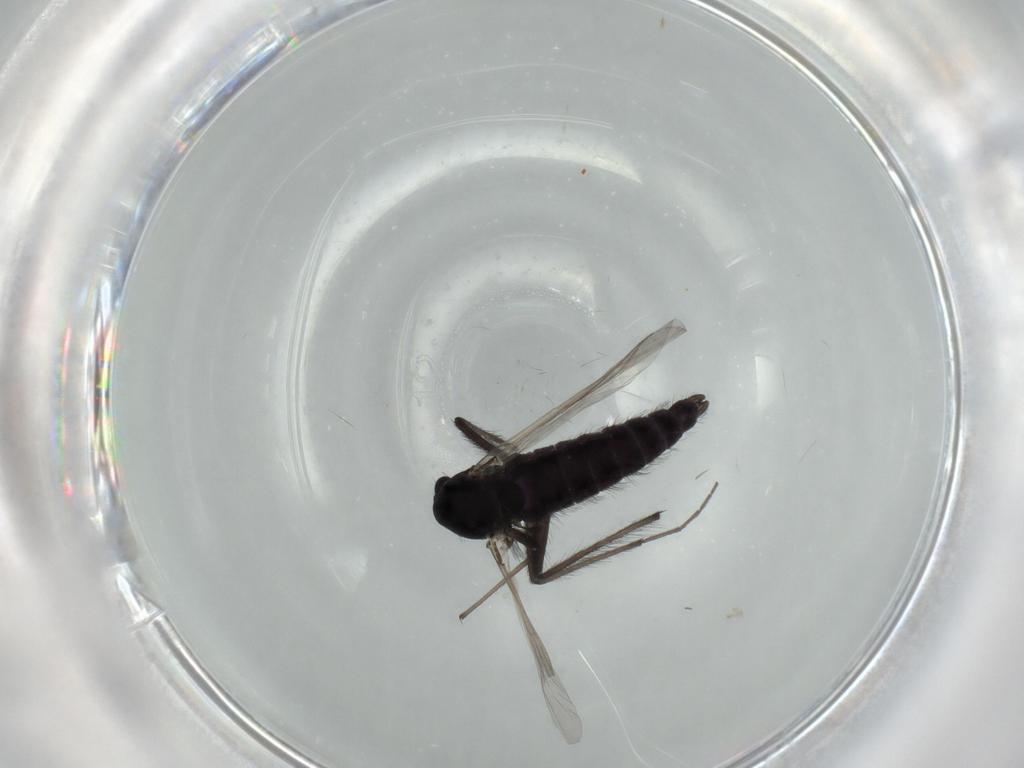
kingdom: Animalia
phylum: Arthropoda
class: Insecta
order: Diptera
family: Chironomidae
